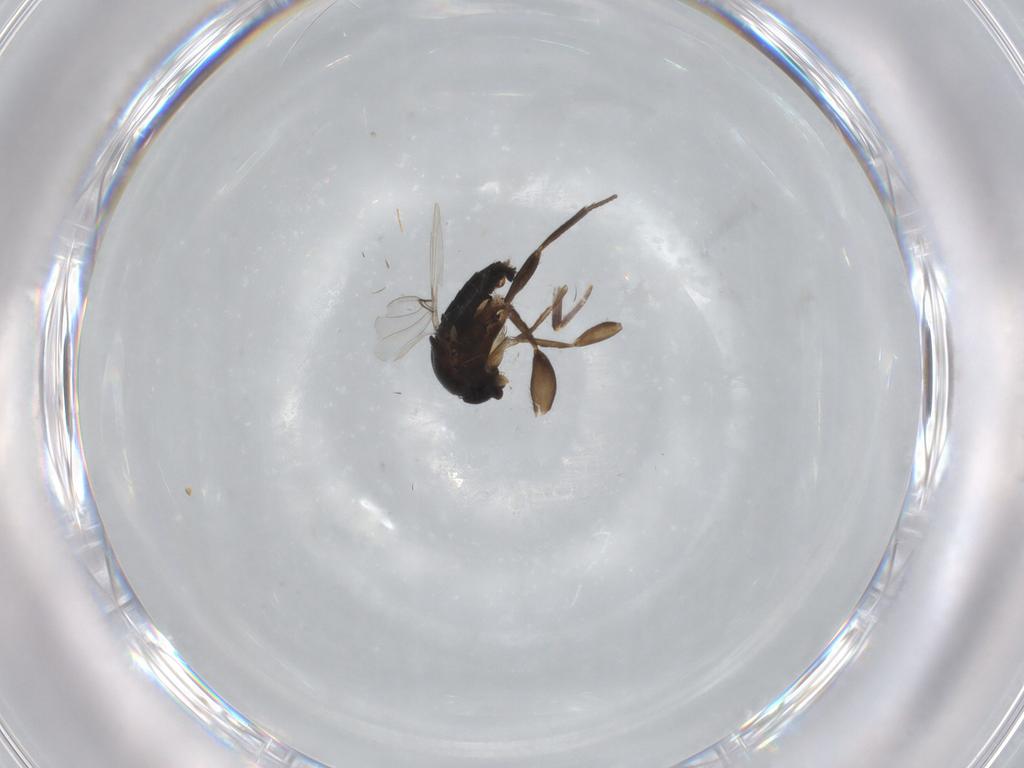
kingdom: Animalia
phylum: Arthropoda
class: Insecta
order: Diptera
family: Phoridae
